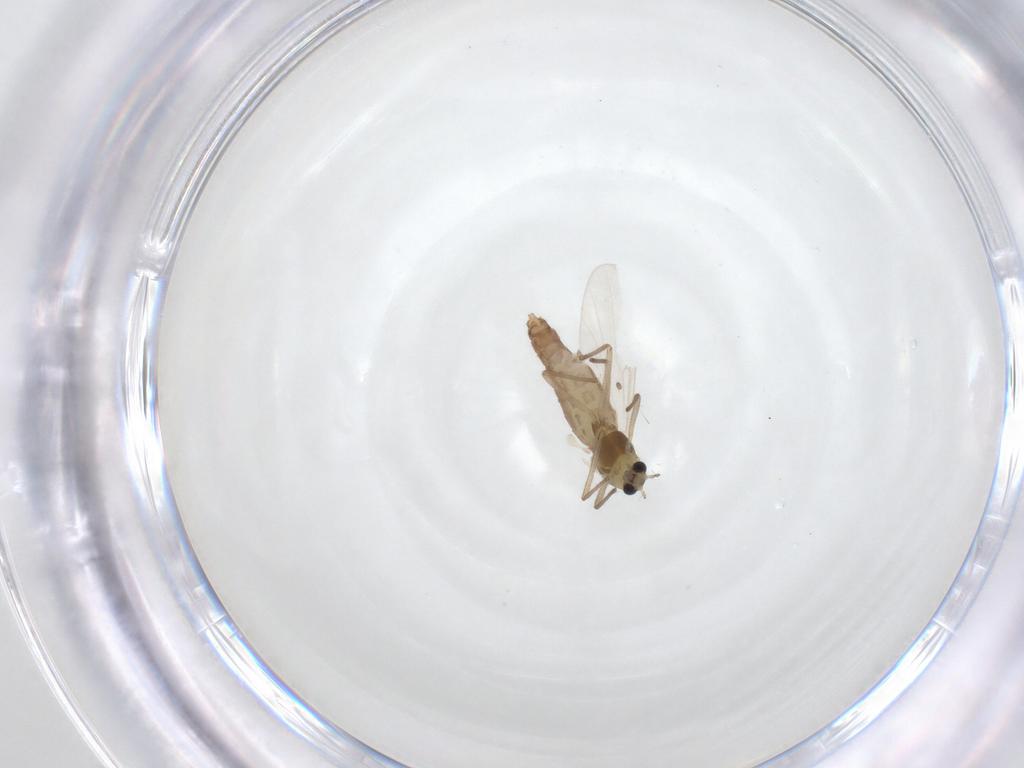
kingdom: Animalia
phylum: Arthropoda
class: Insecta
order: Diptera
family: Chironomidae
